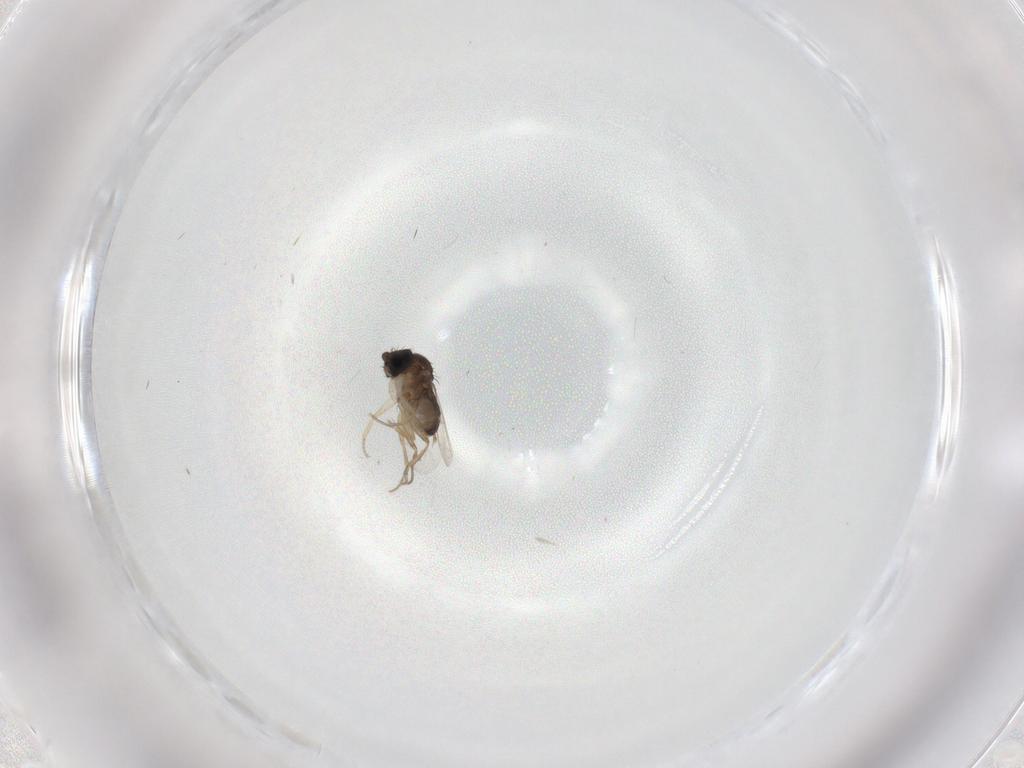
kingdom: Animalia
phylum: Arthropoda
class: Insecta
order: Diptera
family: Phoridae
